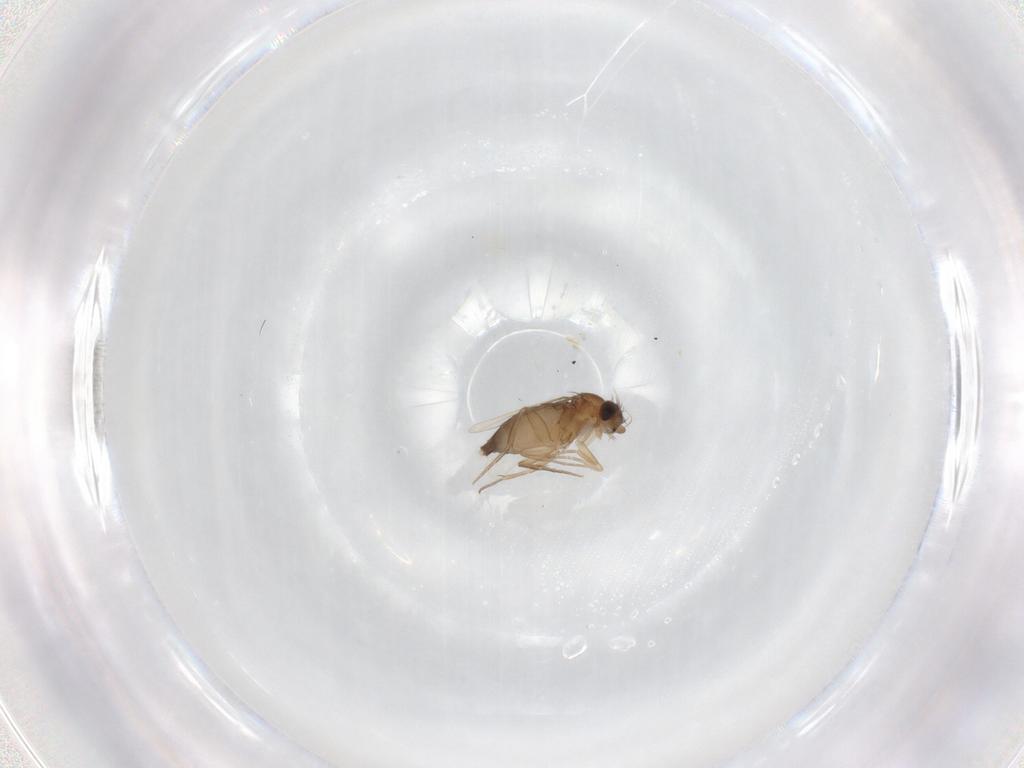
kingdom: Animalia
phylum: Arthropoda
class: Insecta
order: Diptera
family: Phoridae
